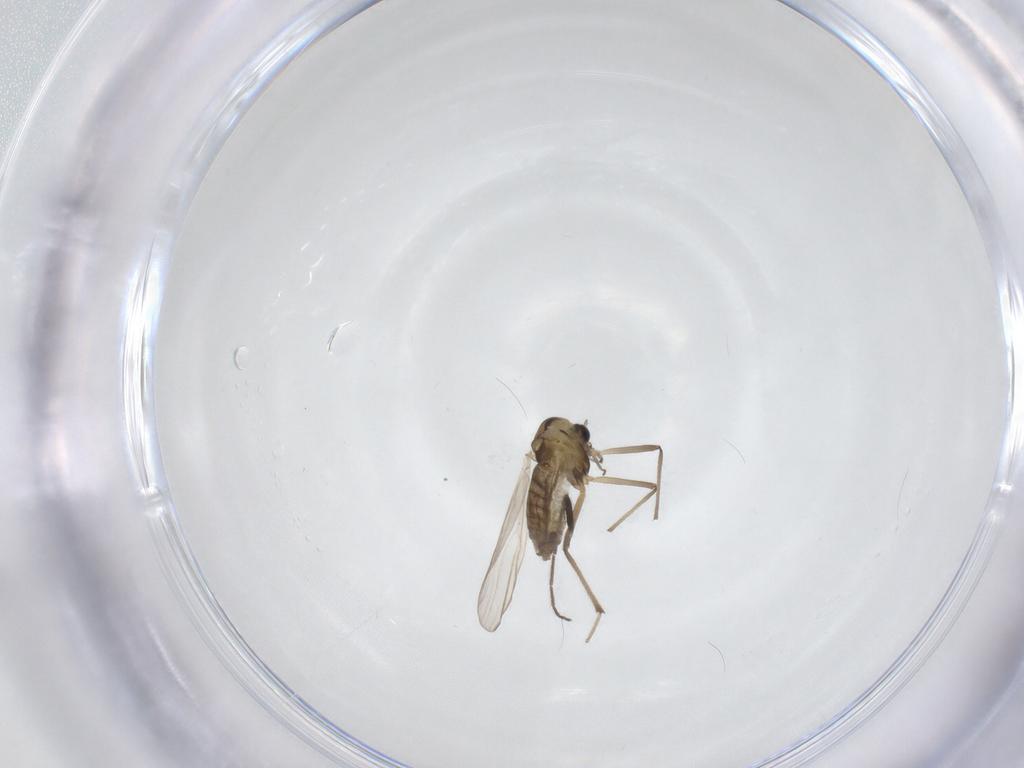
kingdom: Animalia
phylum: Arthropoda
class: Insecta
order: Diptera
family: Chironomidae
